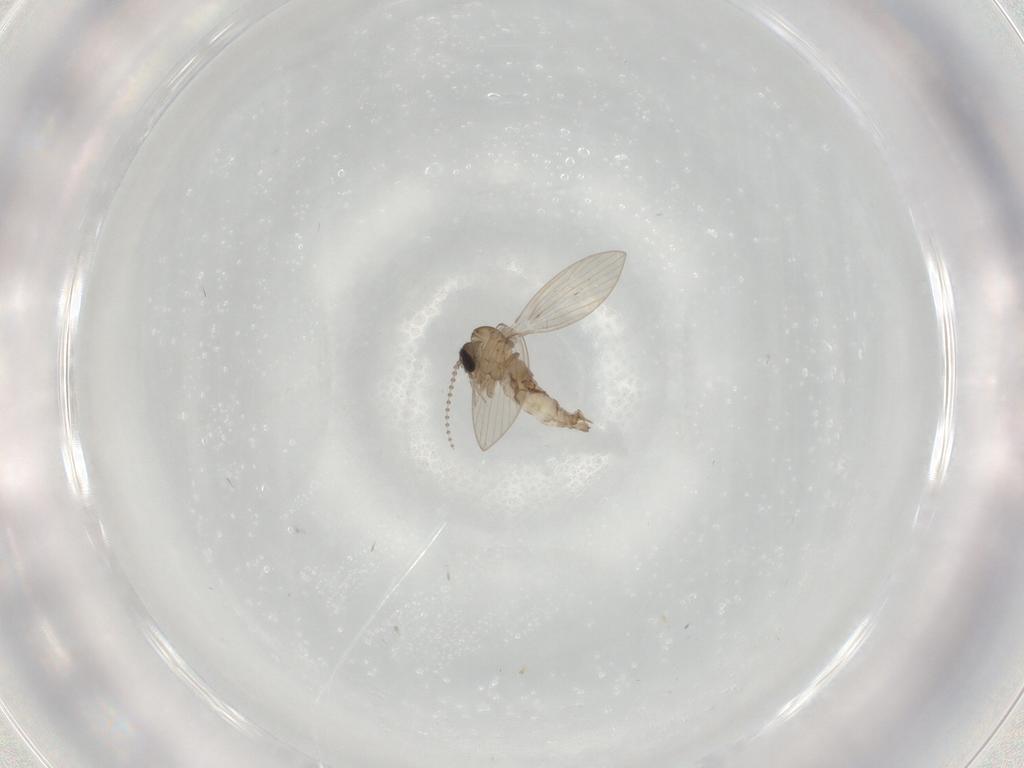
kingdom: Animalia
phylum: Arthropoda
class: Insecta
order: Diptera
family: Psychodidae
